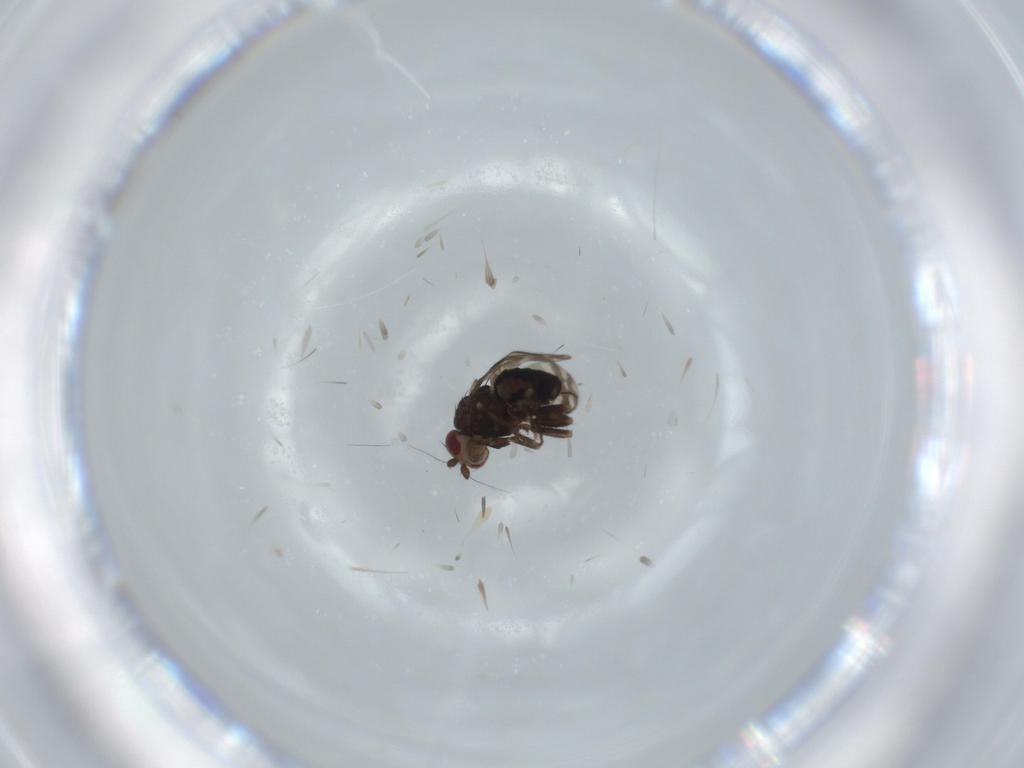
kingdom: Animalia
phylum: Arthropoda
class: Insecta
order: Diptera
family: Sphaeroceridae
